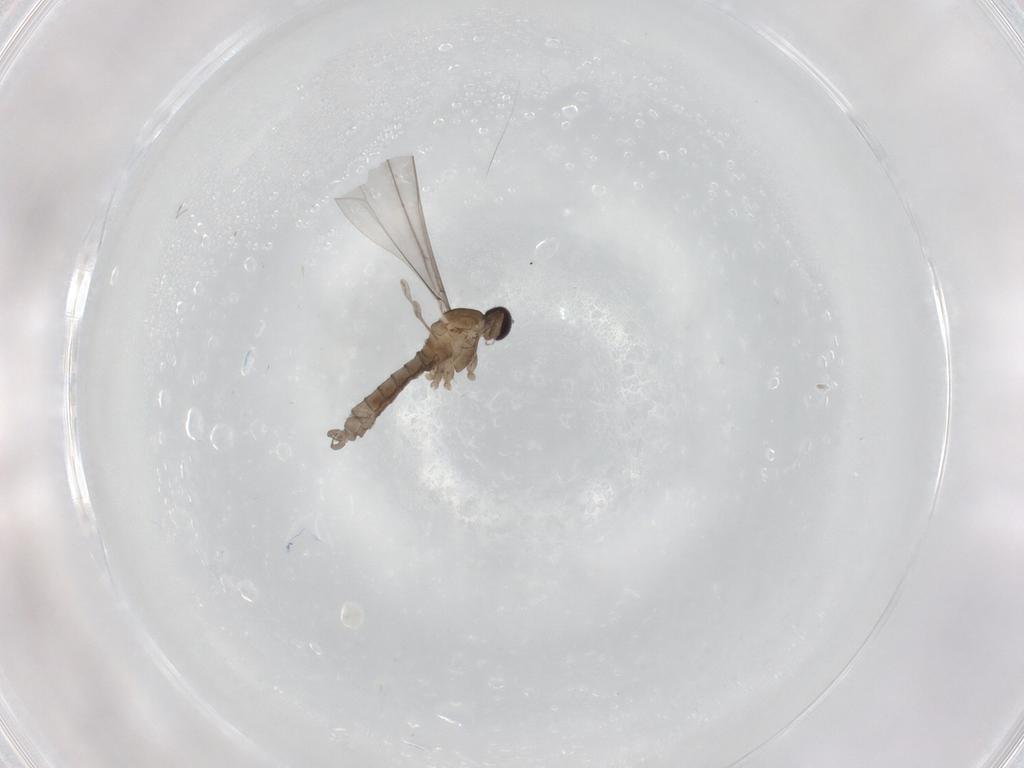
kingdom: Animalia
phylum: Arthropoda
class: Insecta
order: Diptera
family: Cecidomyiidae
